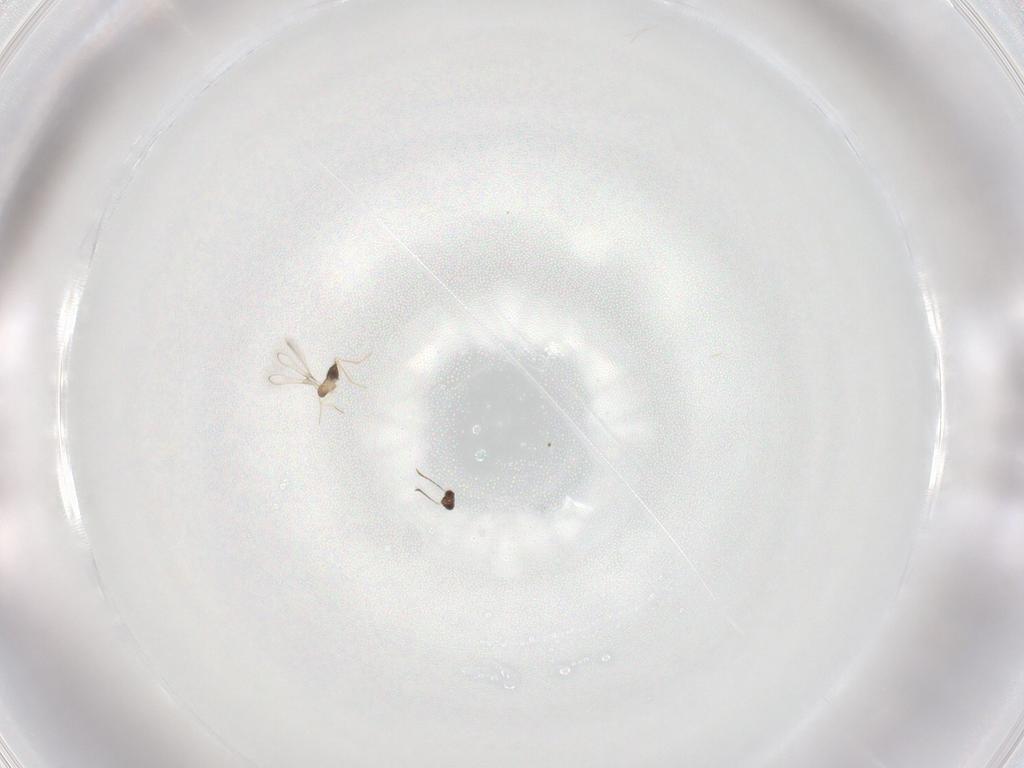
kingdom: Animalia
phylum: Arthropoda
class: Insecta
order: Hymenoptera
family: Mymaridae
